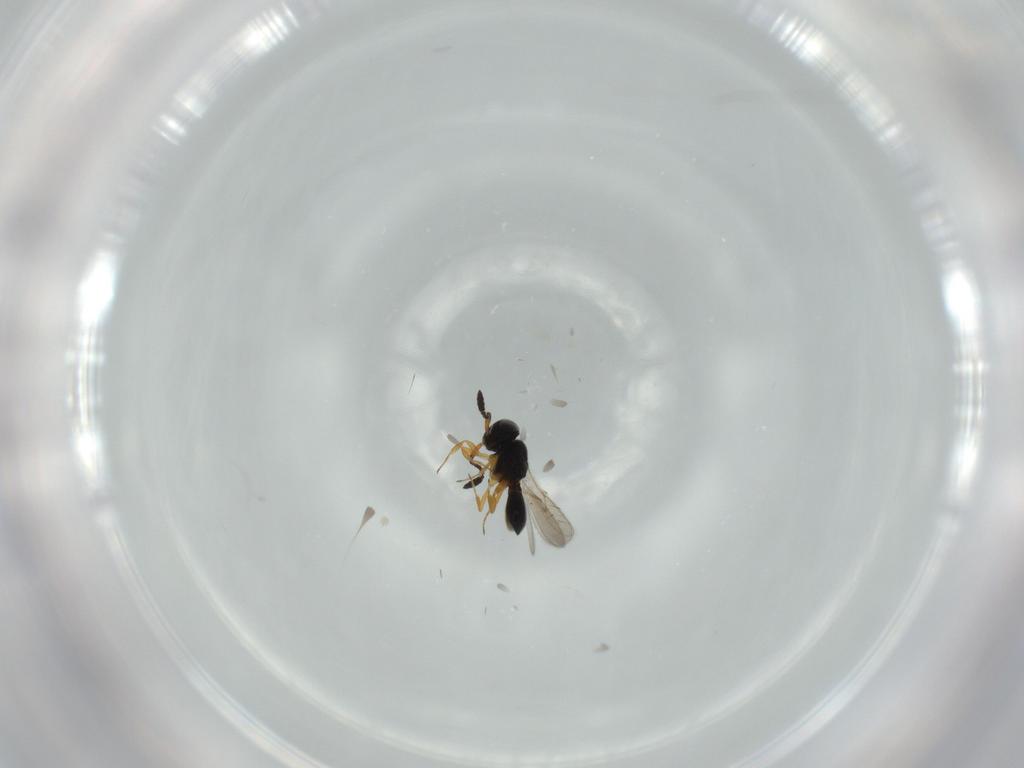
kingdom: Animalia
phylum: Arthropoda
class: Insecta
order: Hymenoptera
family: Scelionidae
